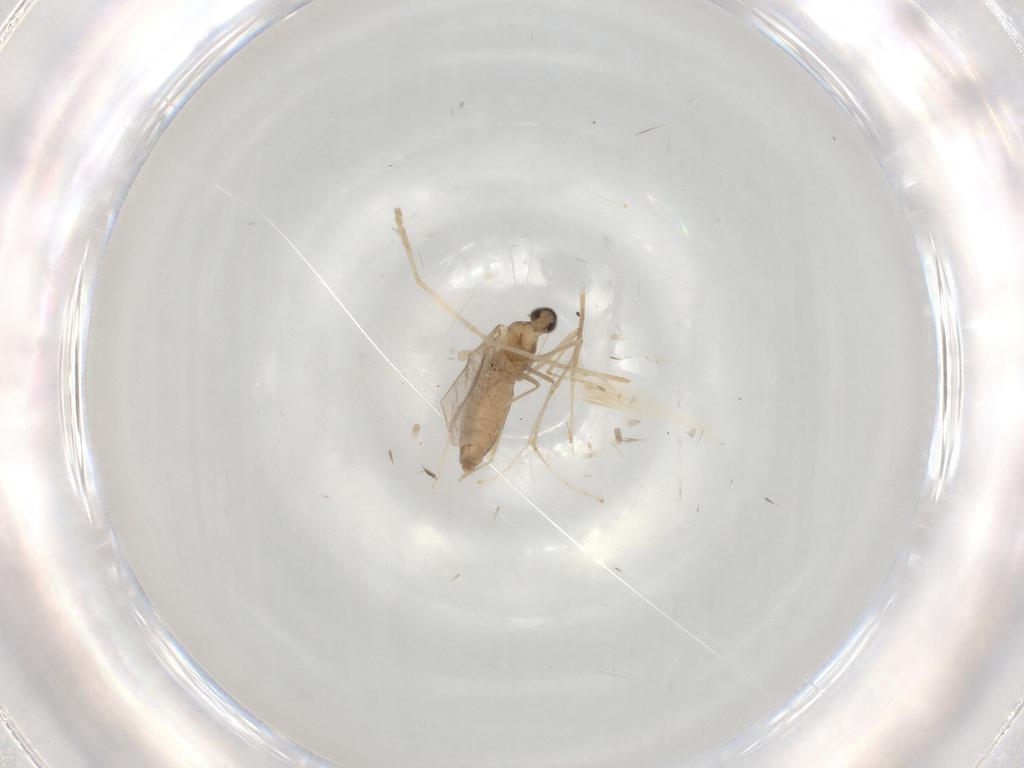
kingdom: Animalia
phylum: Arthropoda
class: Insecta
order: Diptera
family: Cecidomyiidae
